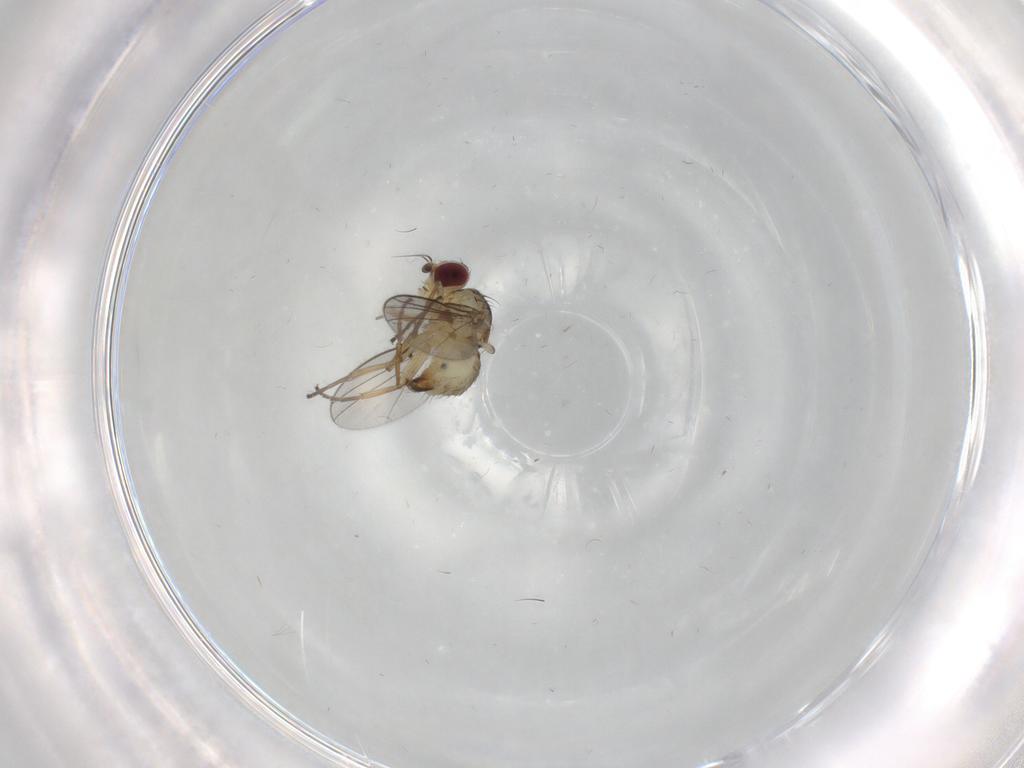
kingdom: Animalia
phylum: Arthropoda
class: Insecta
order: Diptera
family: Agromyzidae
